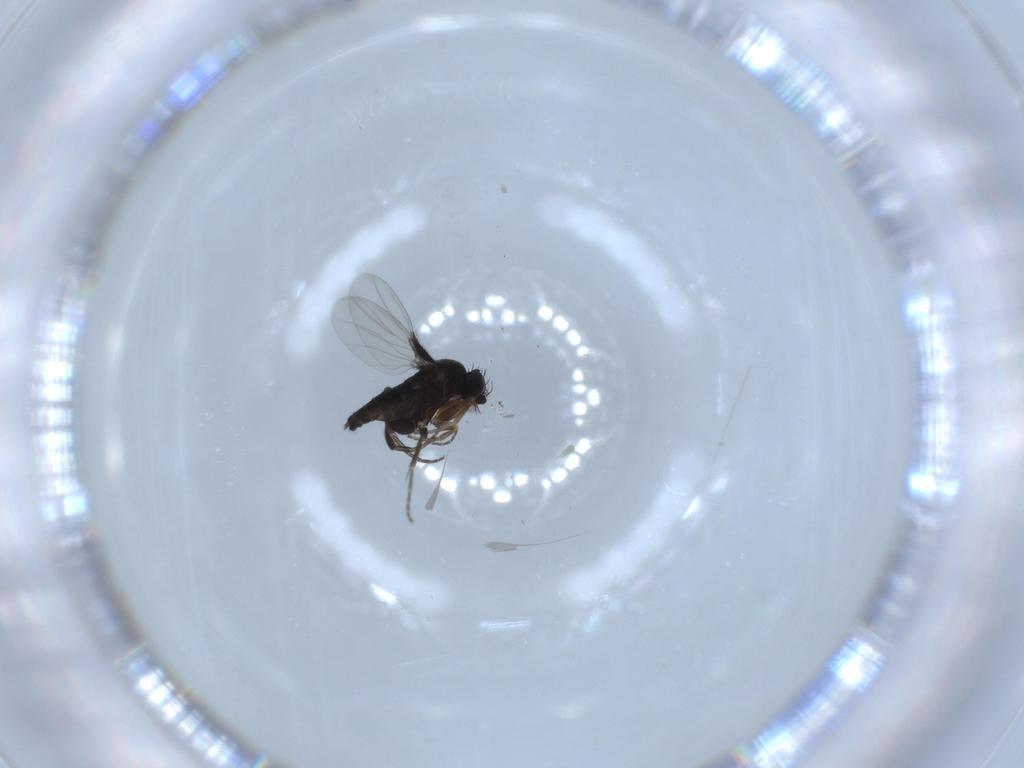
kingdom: Animalia
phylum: Arthropoda
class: Insecta
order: Diptera
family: Phoridae
